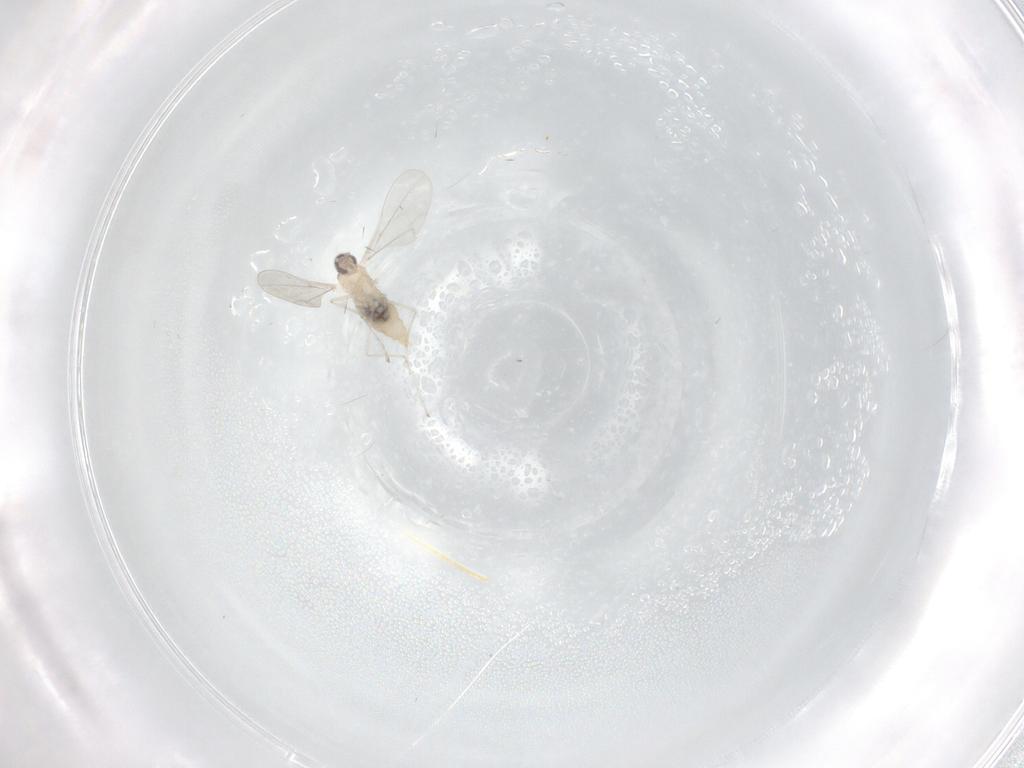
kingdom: Animalia
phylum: Arthropoda
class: Insecta
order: Diptera
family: Cecidomyiidae
